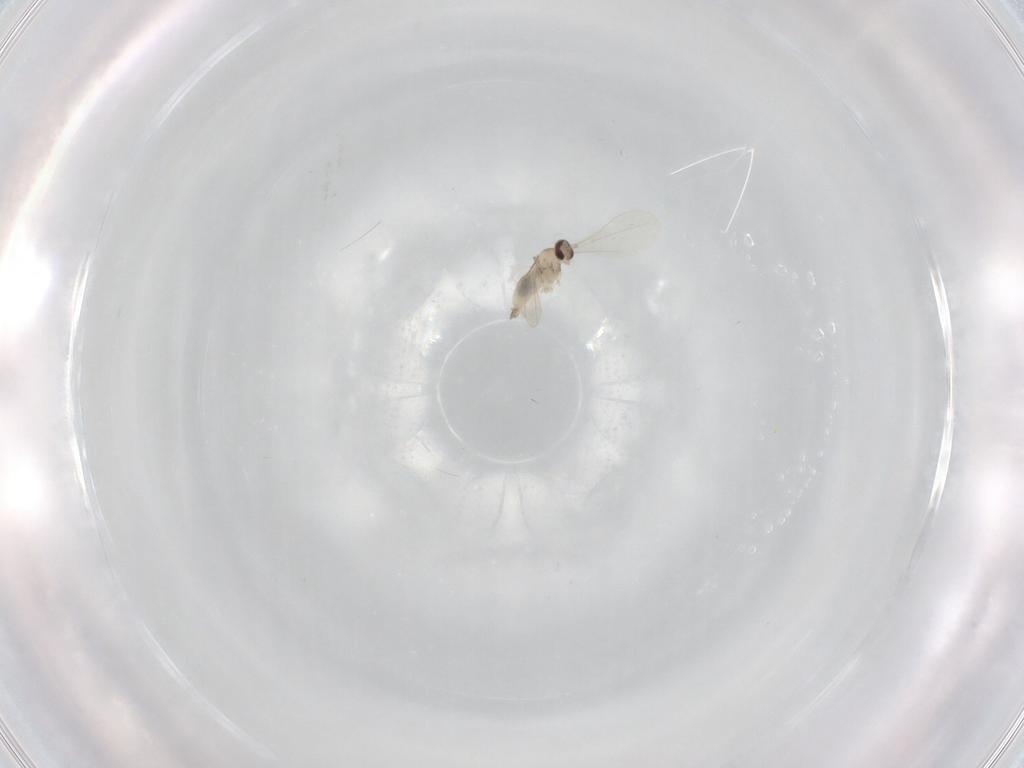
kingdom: Animalia
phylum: Arthropoda
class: Insecta
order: Diptera
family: Cecidomyiidae
